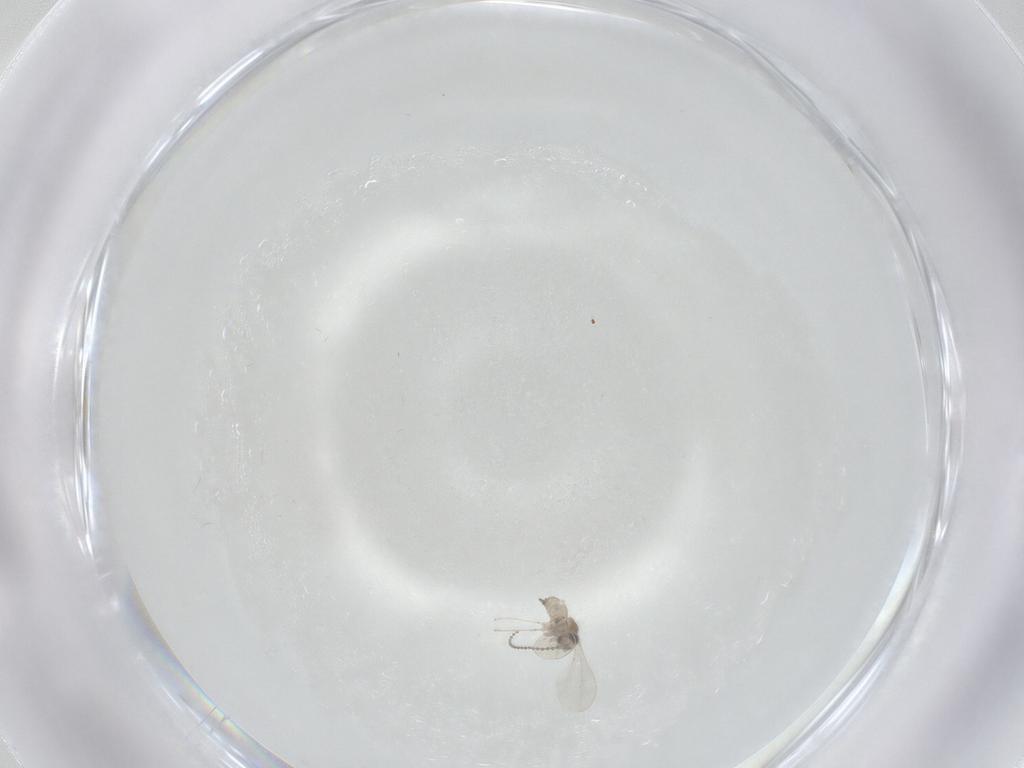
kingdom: Animalia
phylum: Arthropoda
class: Insecta
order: Diptera
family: Cecidomyiidae
